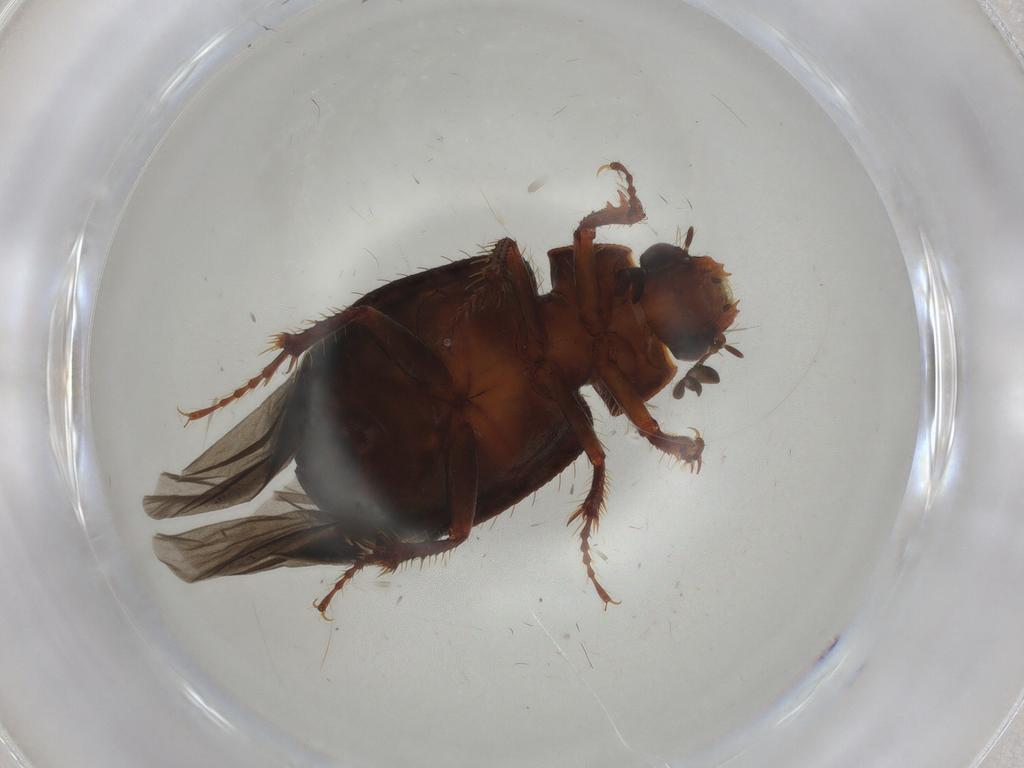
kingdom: Animalia
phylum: Arthropoda
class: Insecta
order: Coleoptera
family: Hybosoridae
